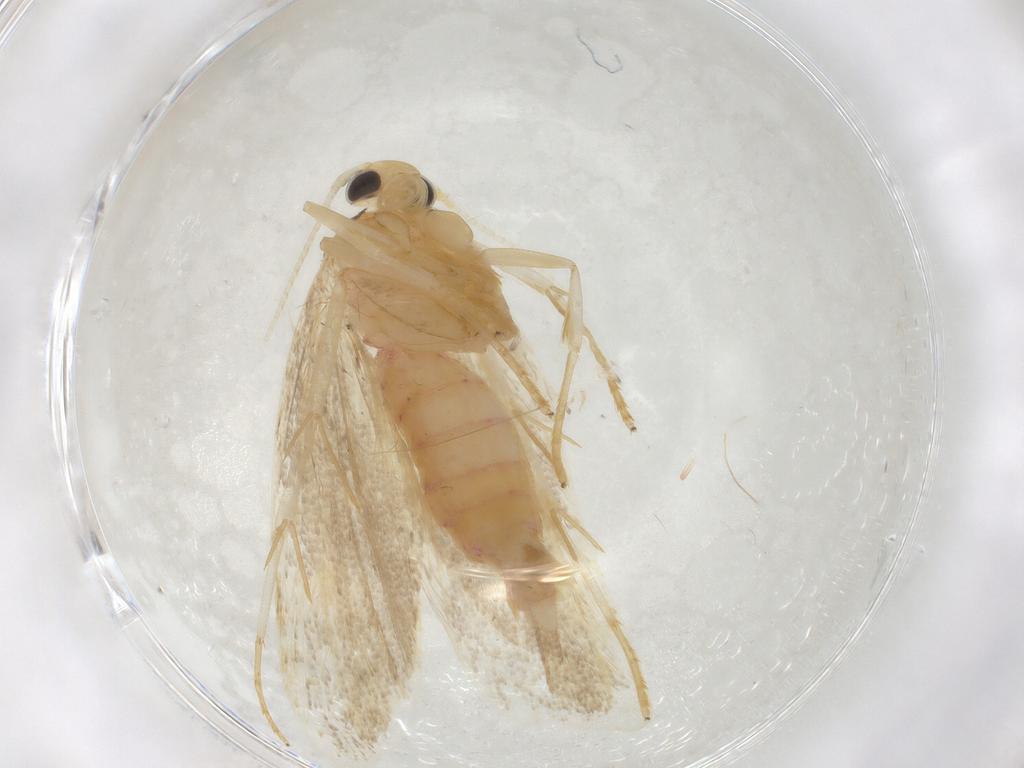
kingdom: Animalia
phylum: Arthropoda
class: Insecta
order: Lepidoptera
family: Lecithoceridae
